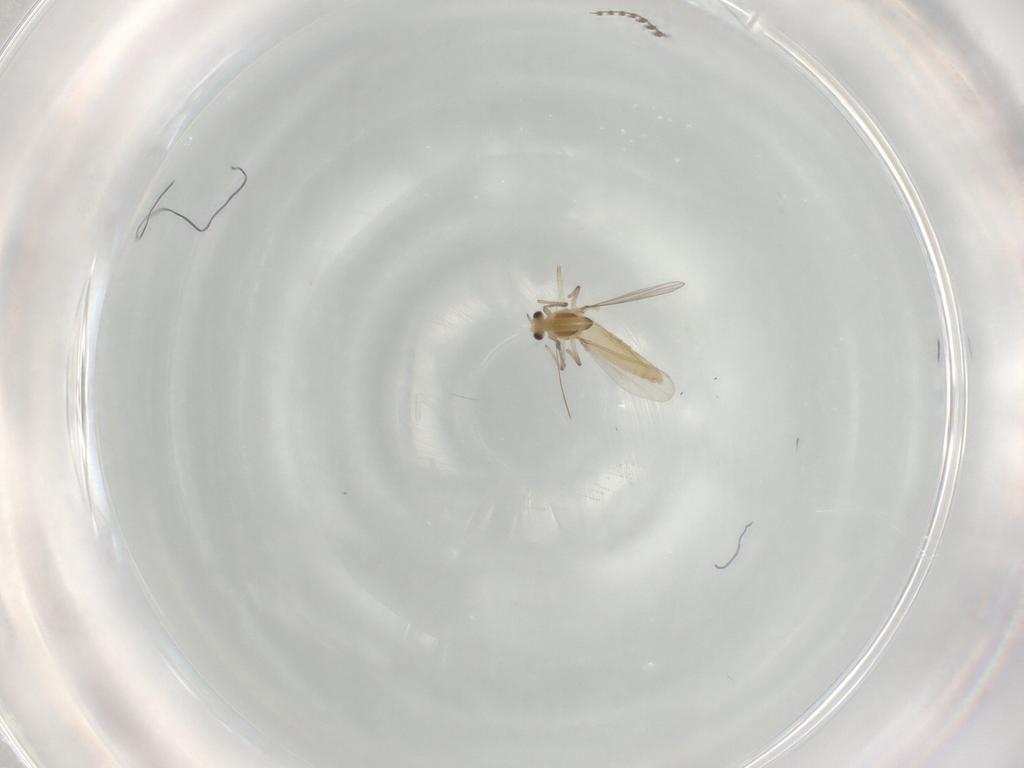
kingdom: Animalia
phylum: Arthropoda
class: Insecta
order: Diptera
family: Chironomidae
